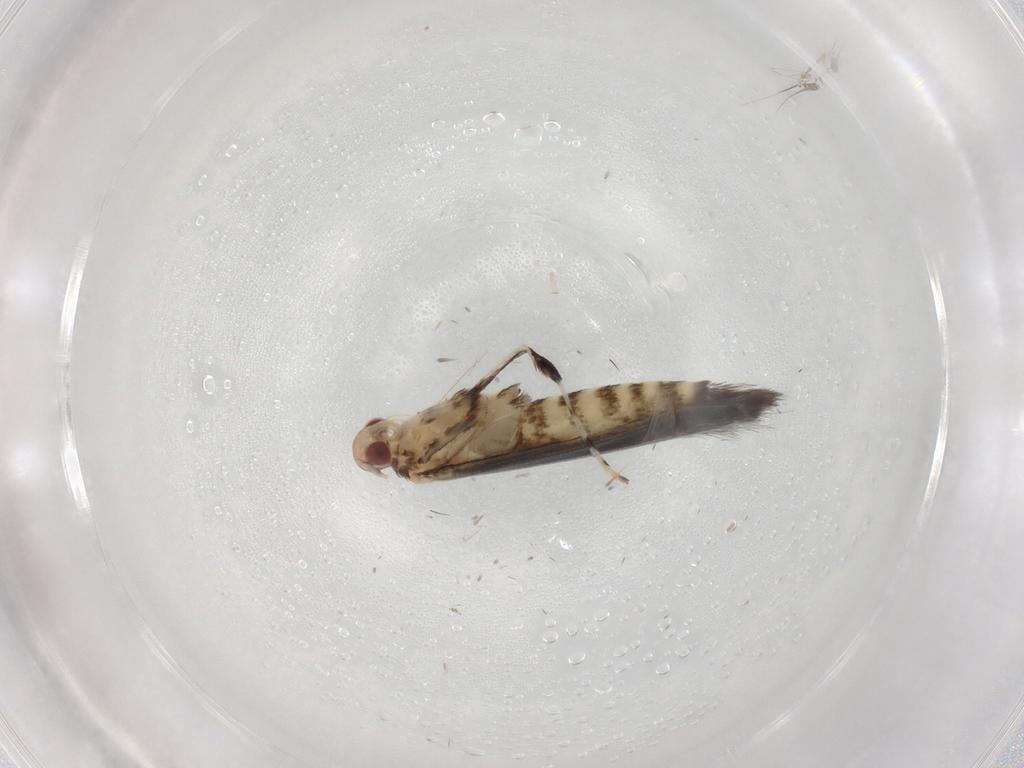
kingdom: Animalia
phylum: Arthropoda
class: Insecta
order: Lepidoptera
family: Gracillariidae
